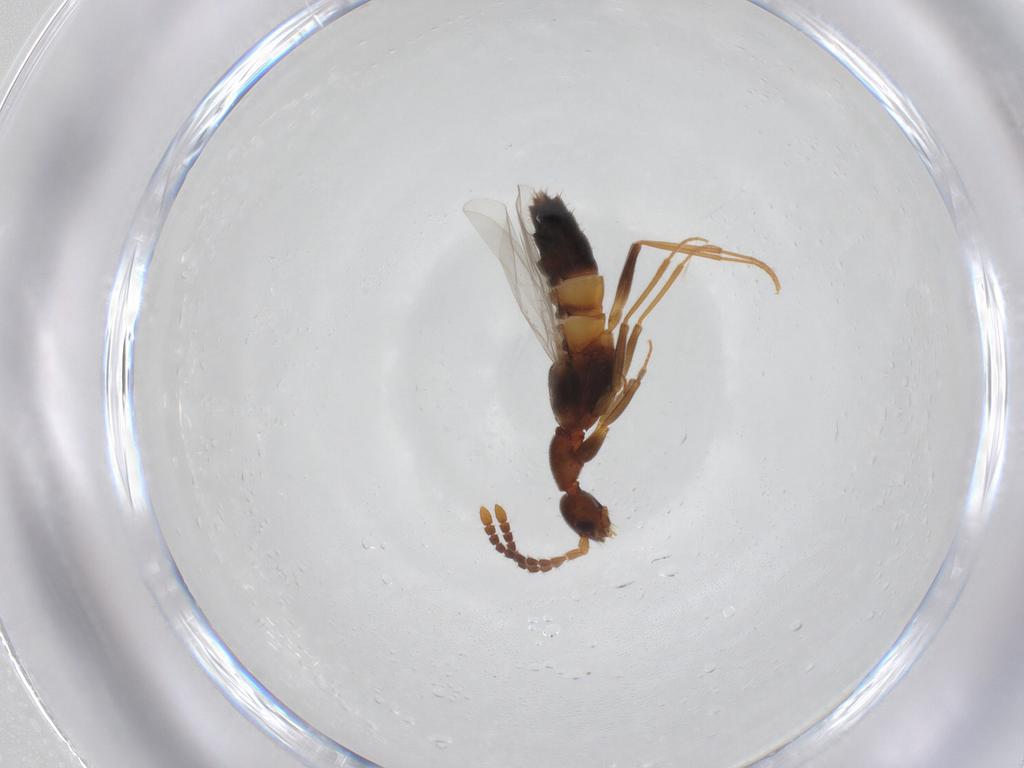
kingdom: Animalia
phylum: Arthropoda
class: Insecta
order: Coleoptera
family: Staphylinidae
